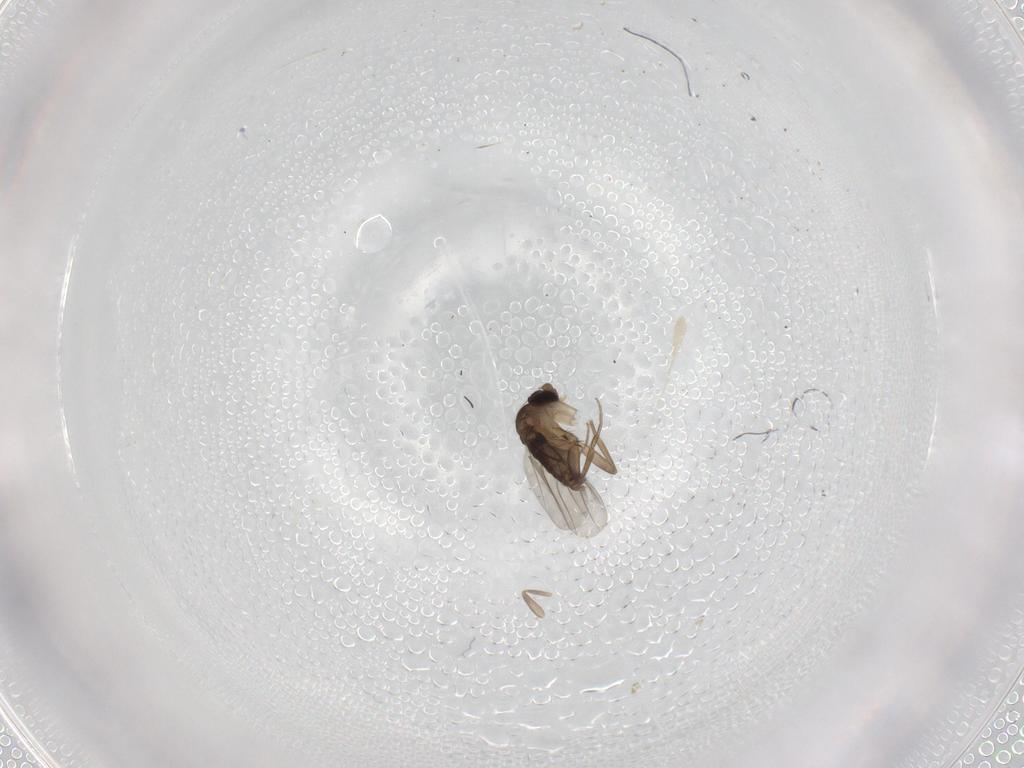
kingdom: Animalia
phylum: Arthropoda
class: Insecta
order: Diptera
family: Phoridae
